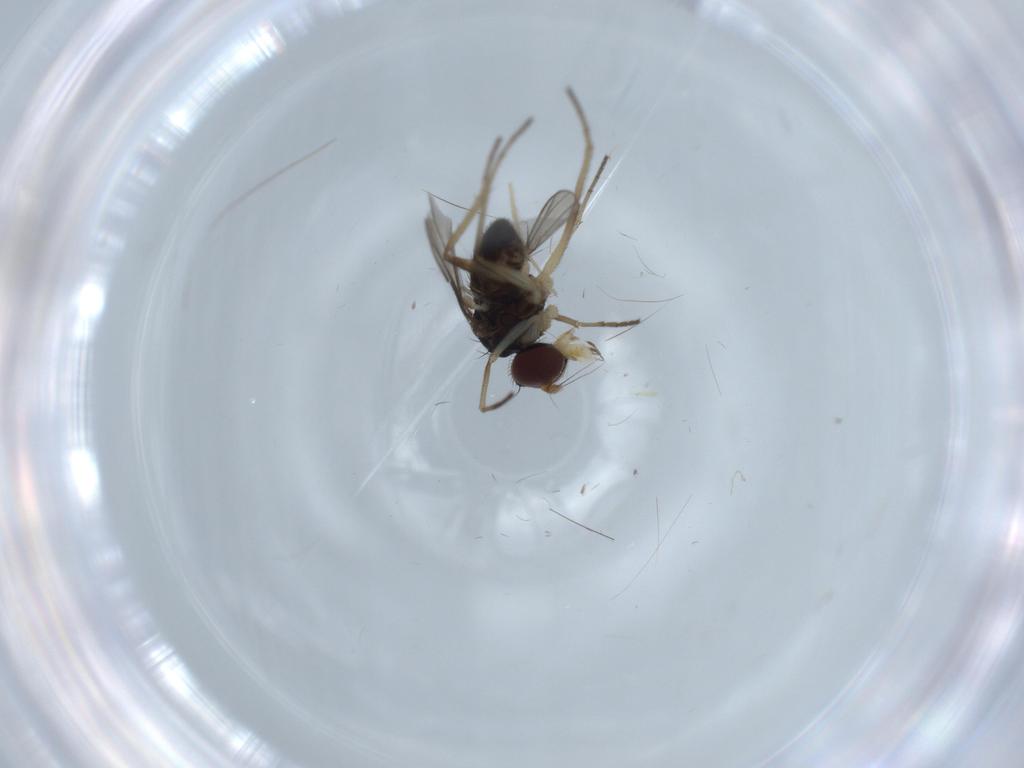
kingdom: Animalia
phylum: Arthropoda
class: Insecta
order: Diptera
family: Dolichopodidae
